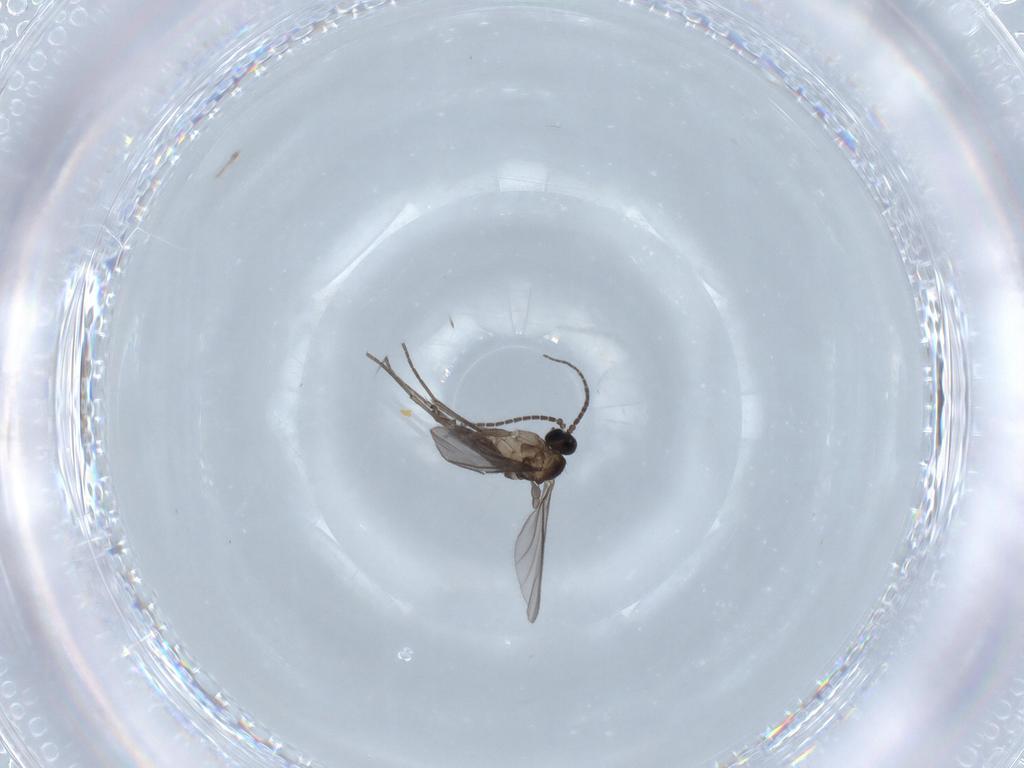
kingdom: Animalia
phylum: Arthropoda
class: Insecta
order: Diptera
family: Sciaridae
